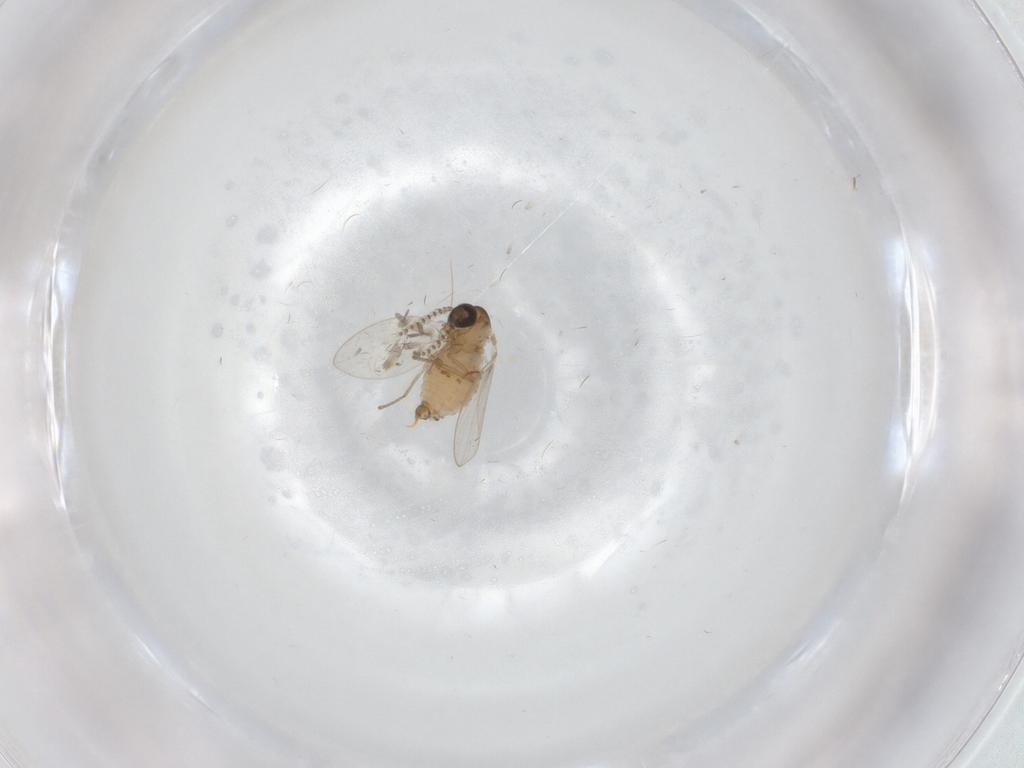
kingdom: Animalia
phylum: Arthropoda
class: Insecta
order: Diptera
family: Psychodidae
